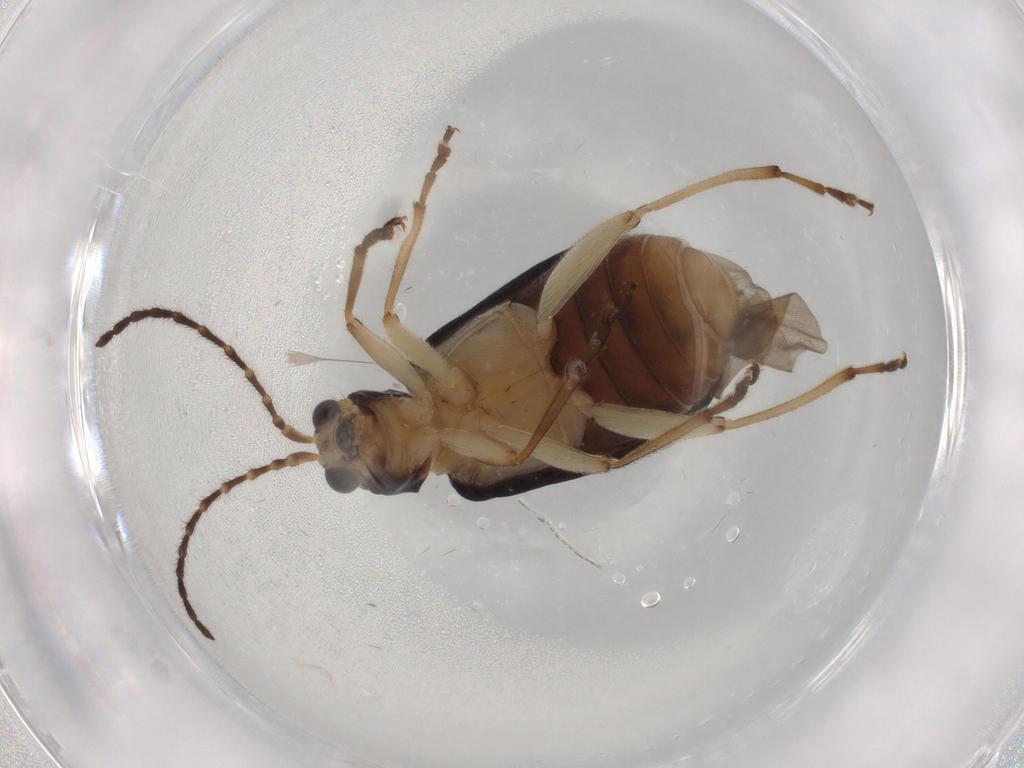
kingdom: Animalia
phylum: Arthropoda
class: Insecta
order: Coleoptera
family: Chrysomelidae
